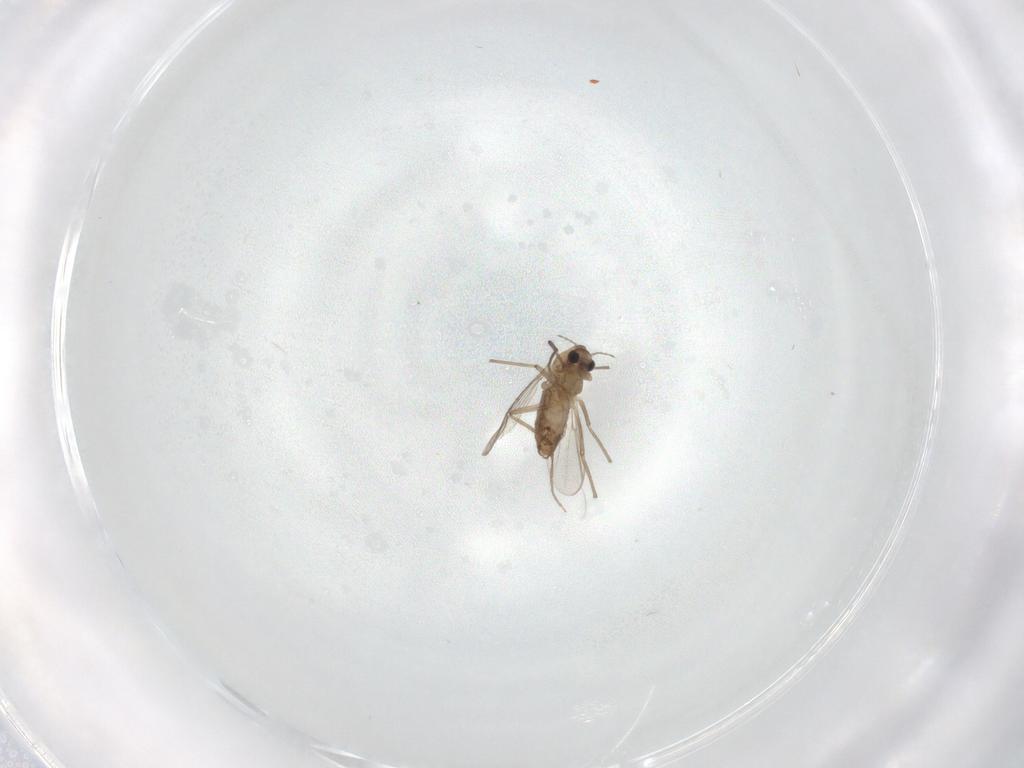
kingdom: Animalia
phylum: Arthropoda
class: Insecta
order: Diptera
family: Chironomidae
